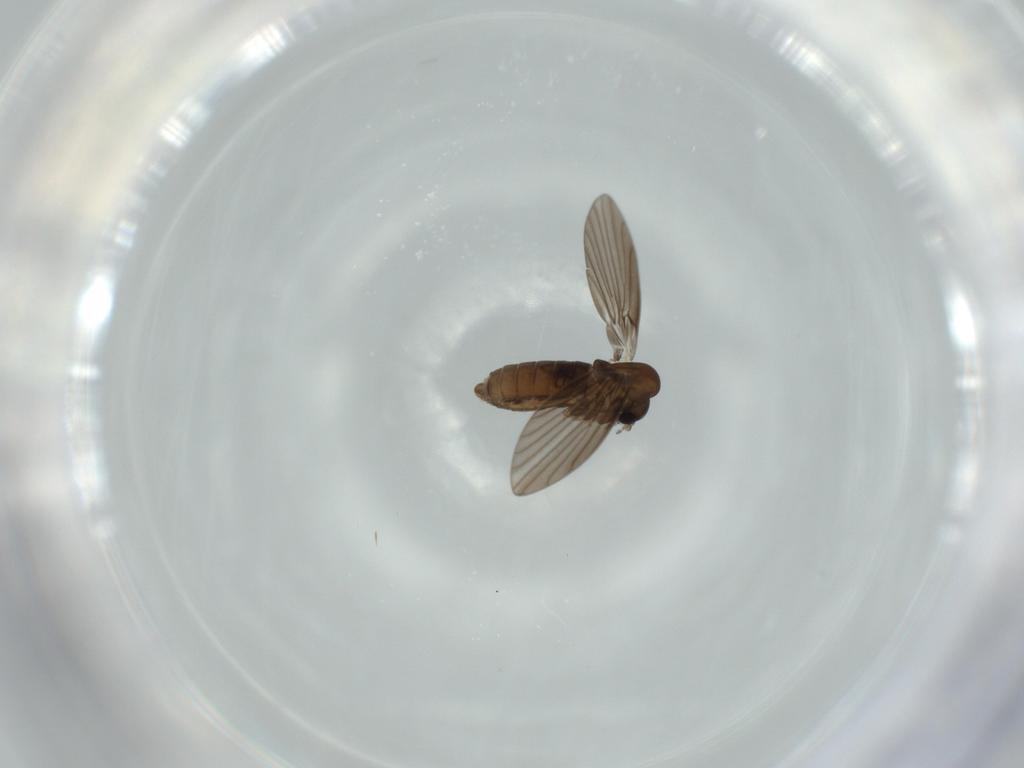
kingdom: Animalia
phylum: Arthropoda
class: Insecta
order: Diptera
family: Psychodidae
